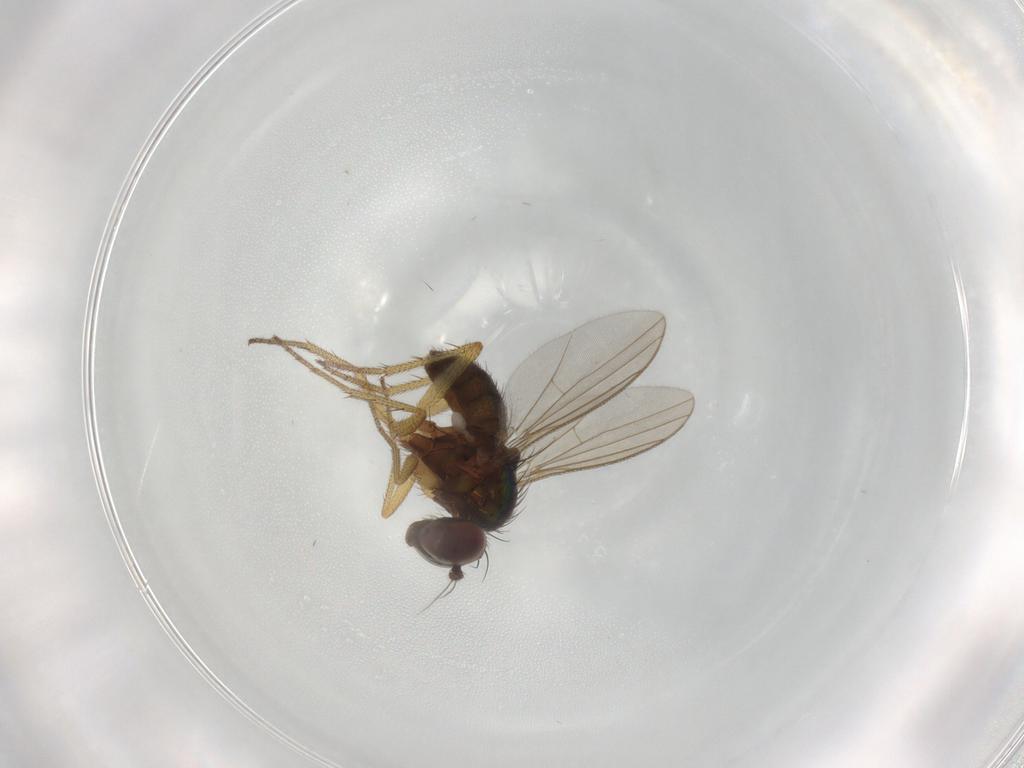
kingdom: Animalia
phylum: Arthropoda
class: Insecta
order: Diptera
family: Dolichopodidae
